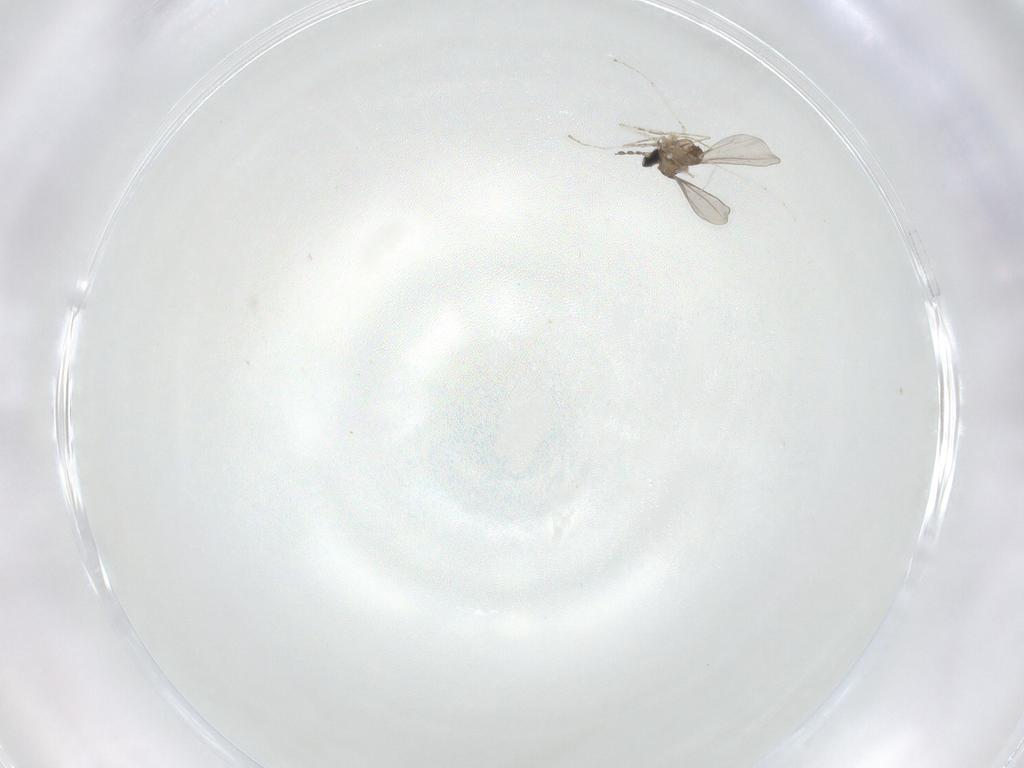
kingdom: Animalia
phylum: Arthropoda
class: Insecta
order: Diptera
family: Cecidomyiidae
